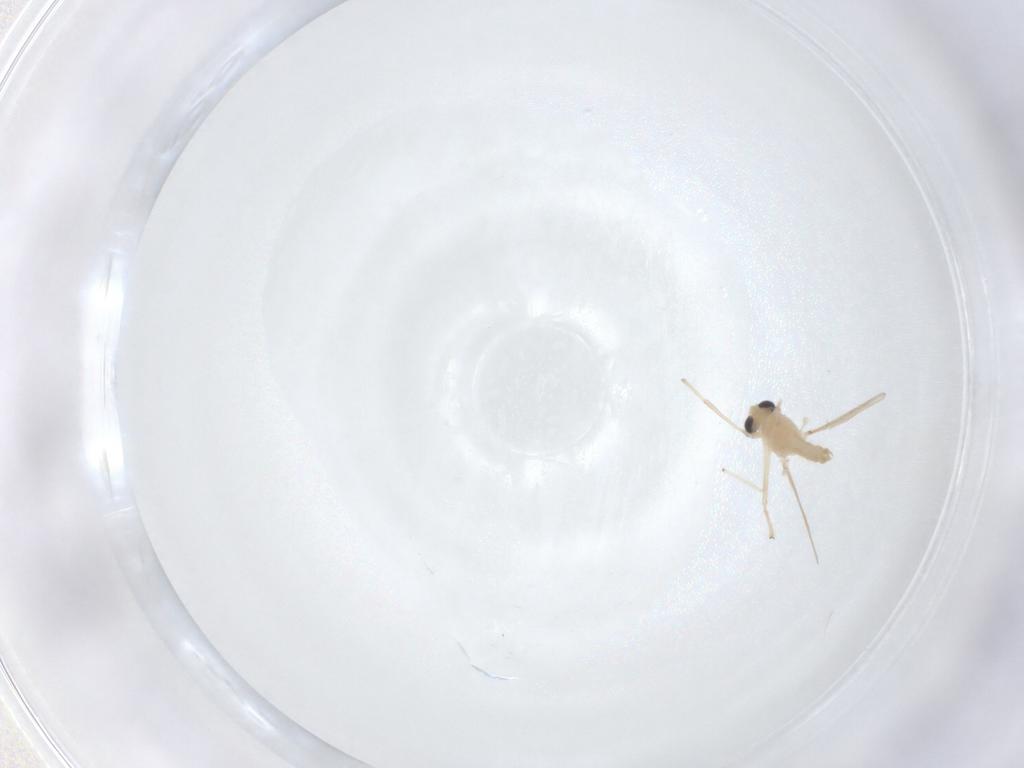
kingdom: Animalia
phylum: Arthropoda
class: Insecta
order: Diptera
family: Chironomidae
